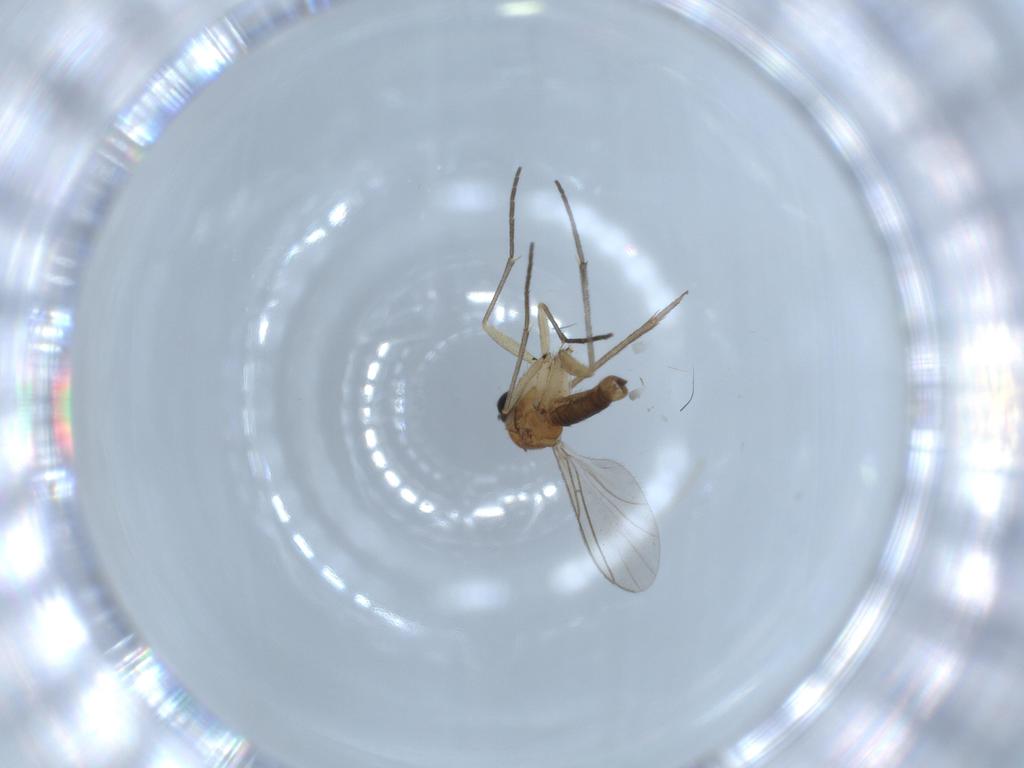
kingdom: Animalia
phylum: Arthropoda
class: Insecta
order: Diptera
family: Sciaridae
